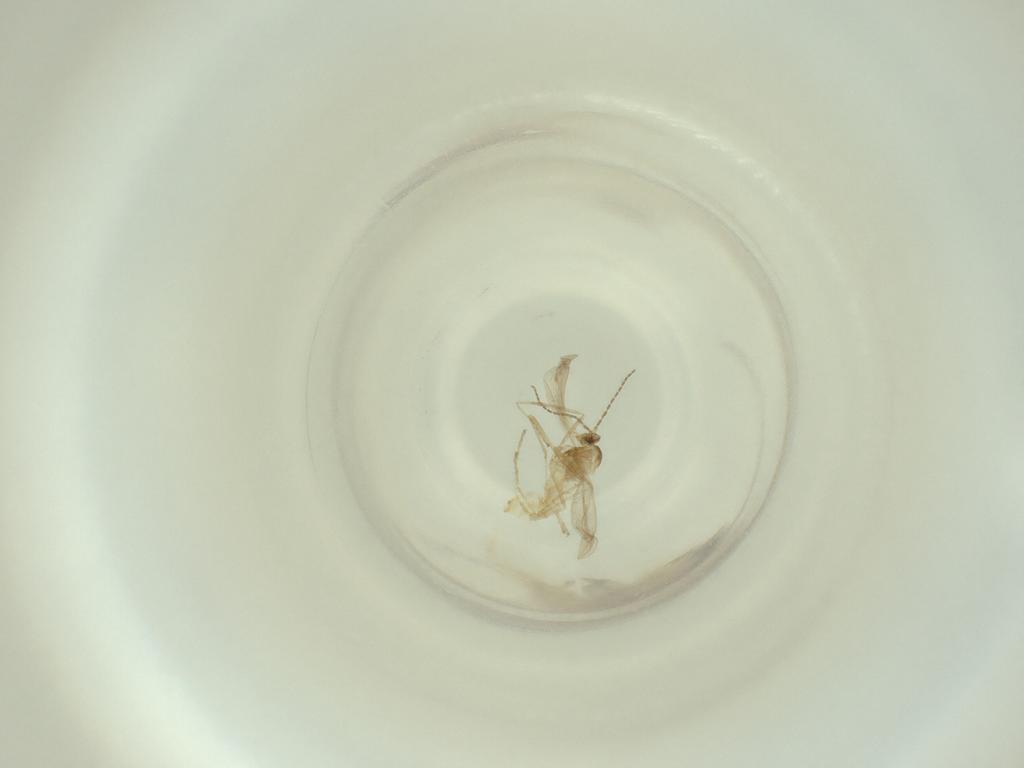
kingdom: Animalia
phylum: Arthropoda
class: Insecta
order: Diptera
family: Cecidomyiidae
